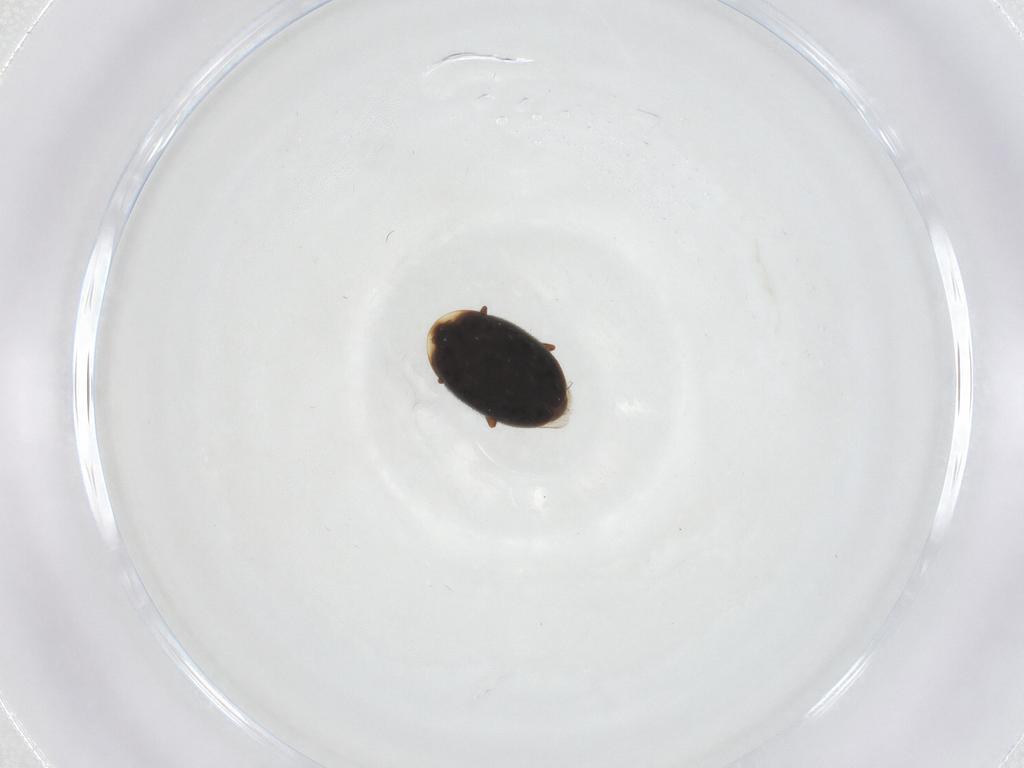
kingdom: Animalia
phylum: Arthropoda
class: Insecta
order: Coleoptera
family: Corylophidae
